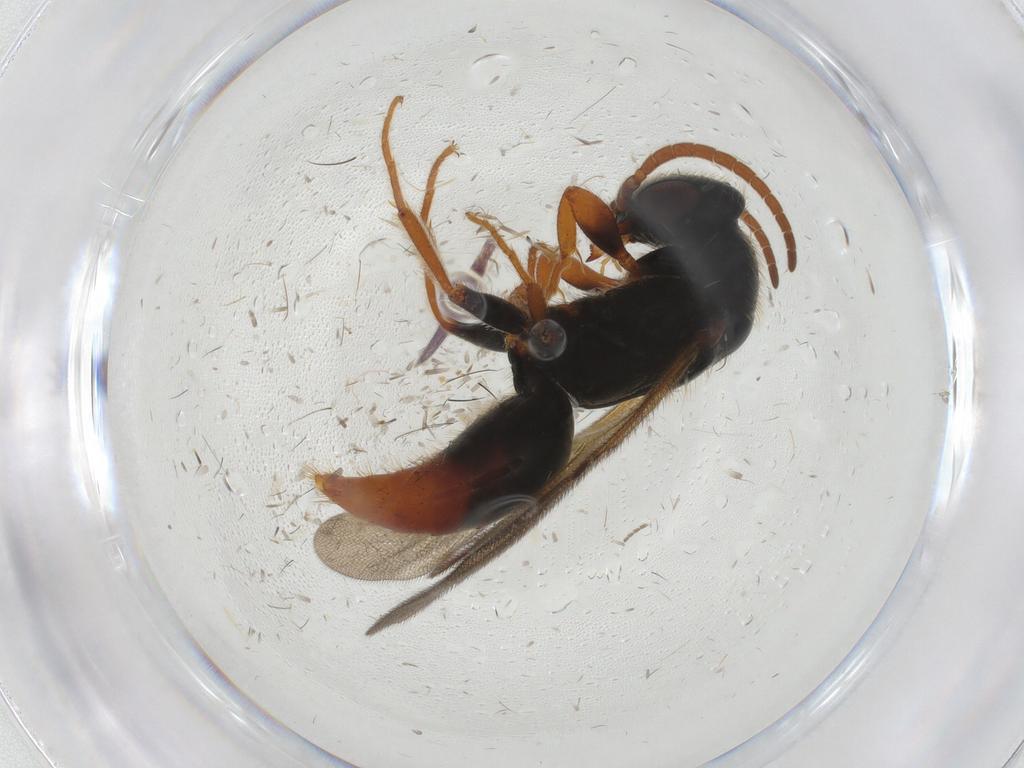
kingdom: Animalia
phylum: Arthropoda
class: Insecta
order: Hymenoptera
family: Bethylidae
